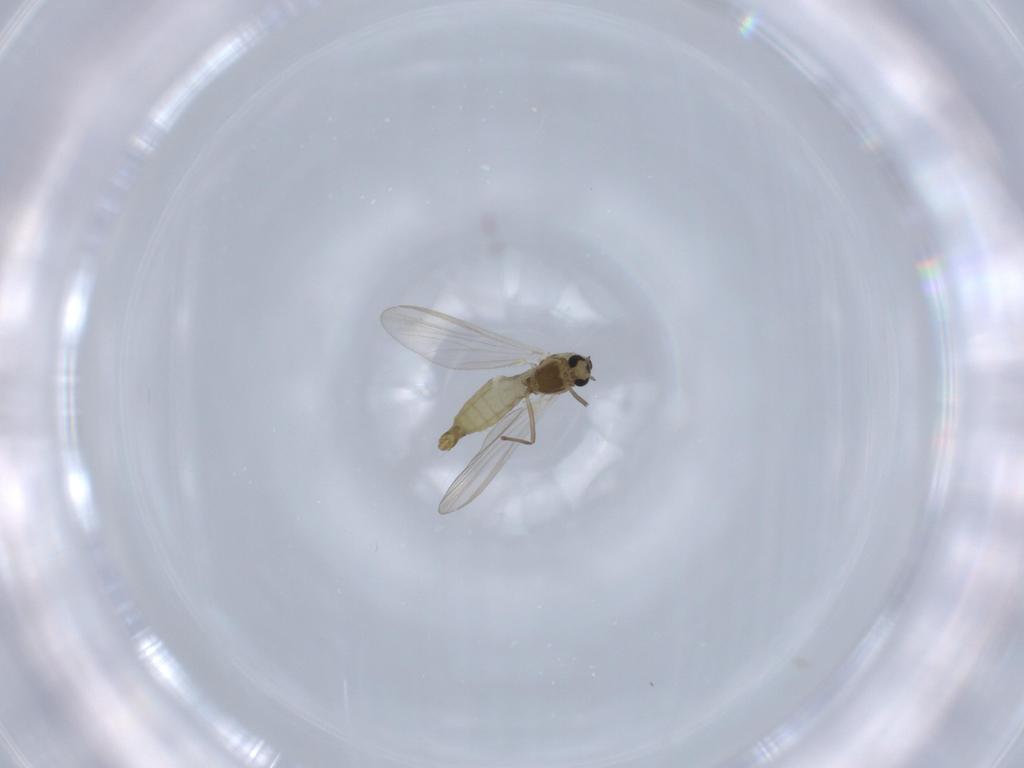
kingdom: Animalia
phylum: Arthropoda
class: Insecta
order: Diptera
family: Chironomidae
